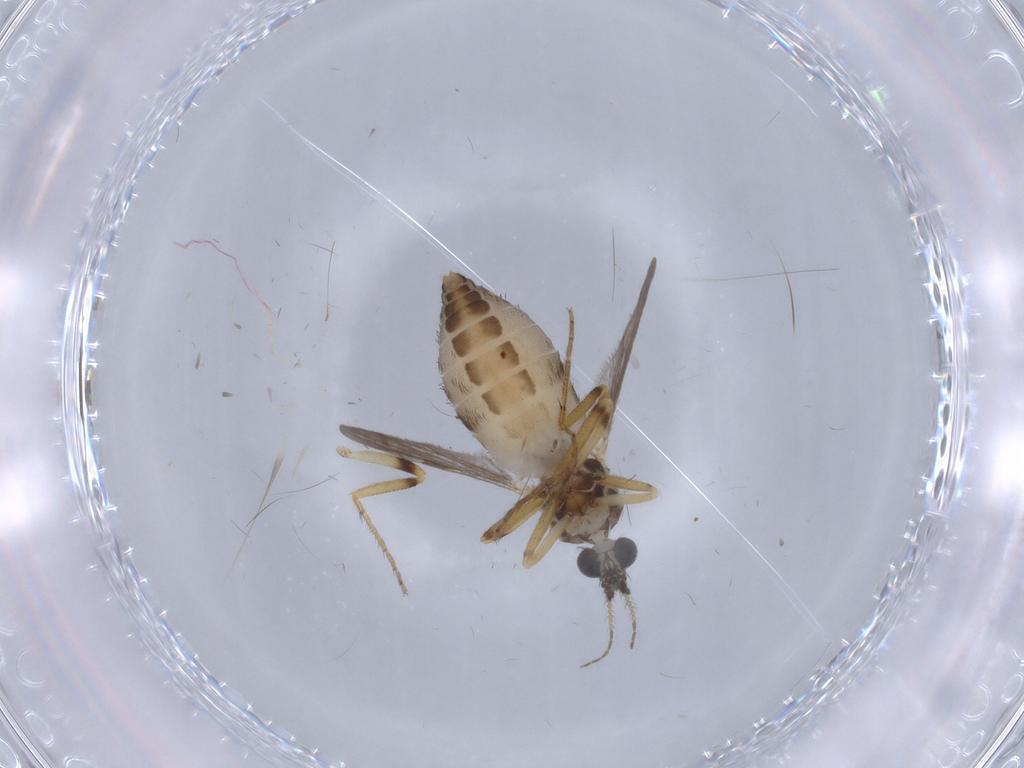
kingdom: Animalia
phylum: Arthropoda
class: Insecta
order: Diptera
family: Ceratopogonidae
